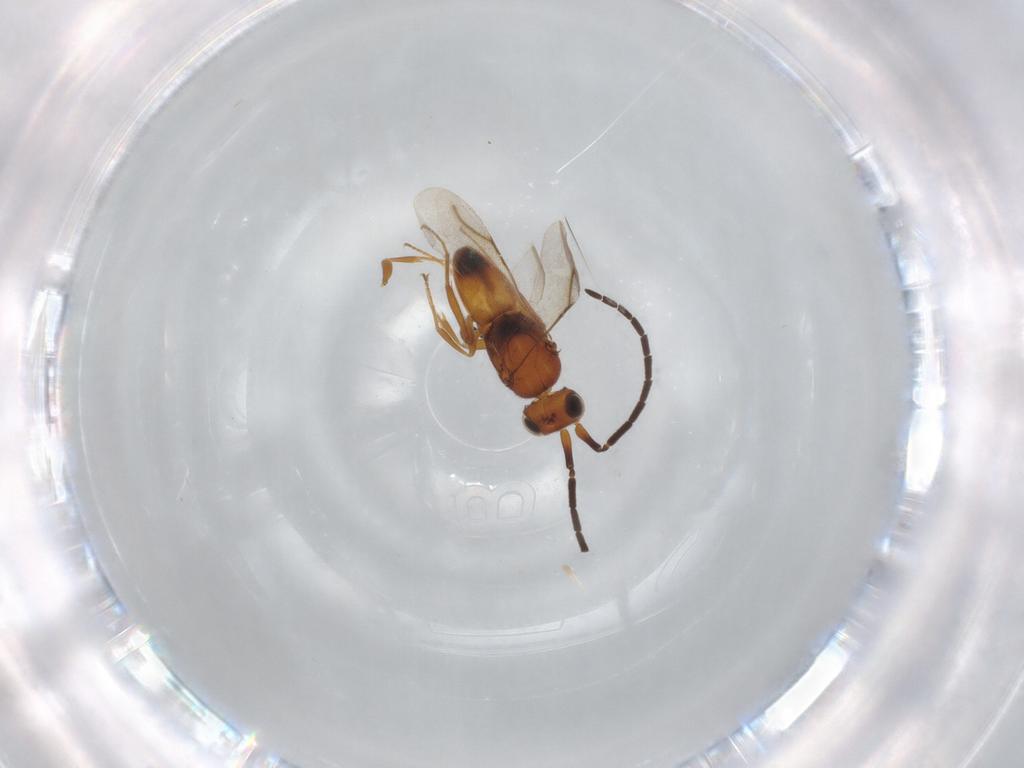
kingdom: Animalia
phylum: Arthropoda
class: Insecta
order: Hymenoptera
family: Ceraphronidae
